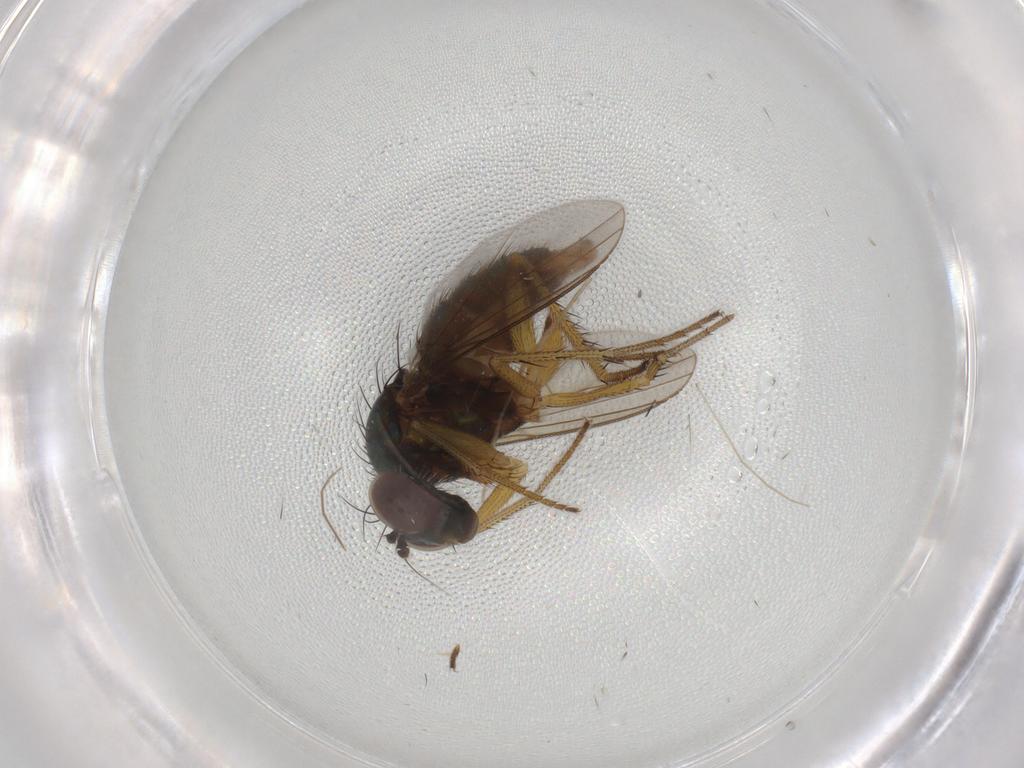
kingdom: Animalia
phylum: Arthropoda
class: Insecta
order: Diptera
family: Dolichopodidae
